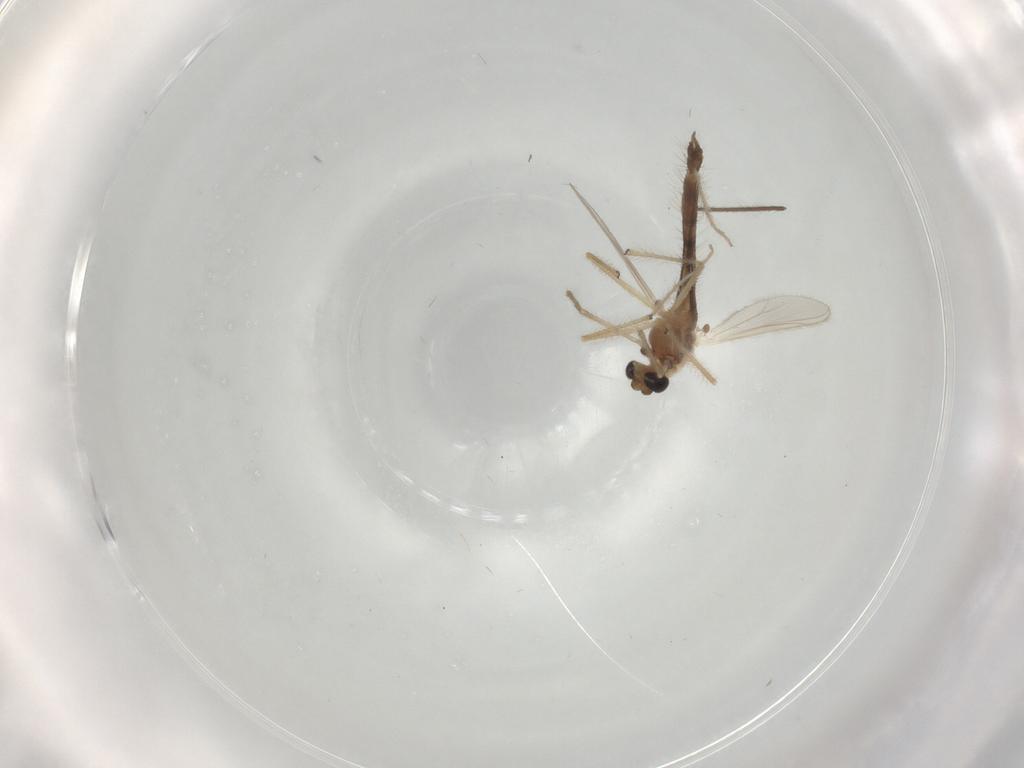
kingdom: Animalia
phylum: Arthropoda
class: Insecta
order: Diptera
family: Chironomidae
